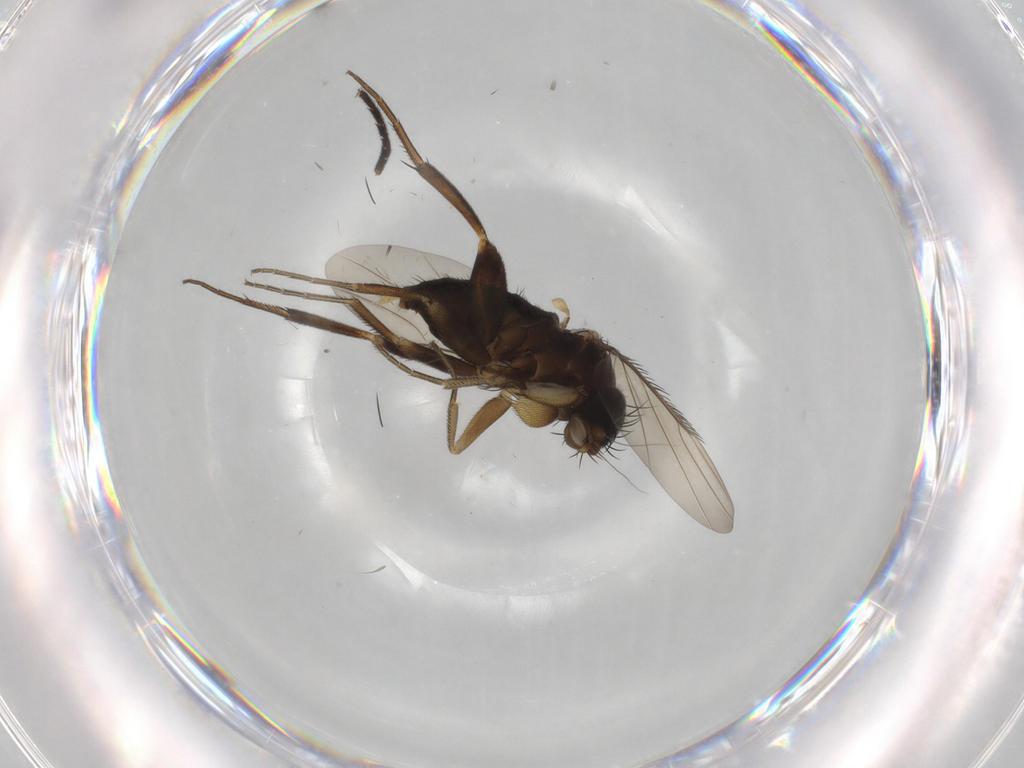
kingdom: Animalia
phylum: Arthropoda
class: Insecta
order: Diptera
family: Phoridae
